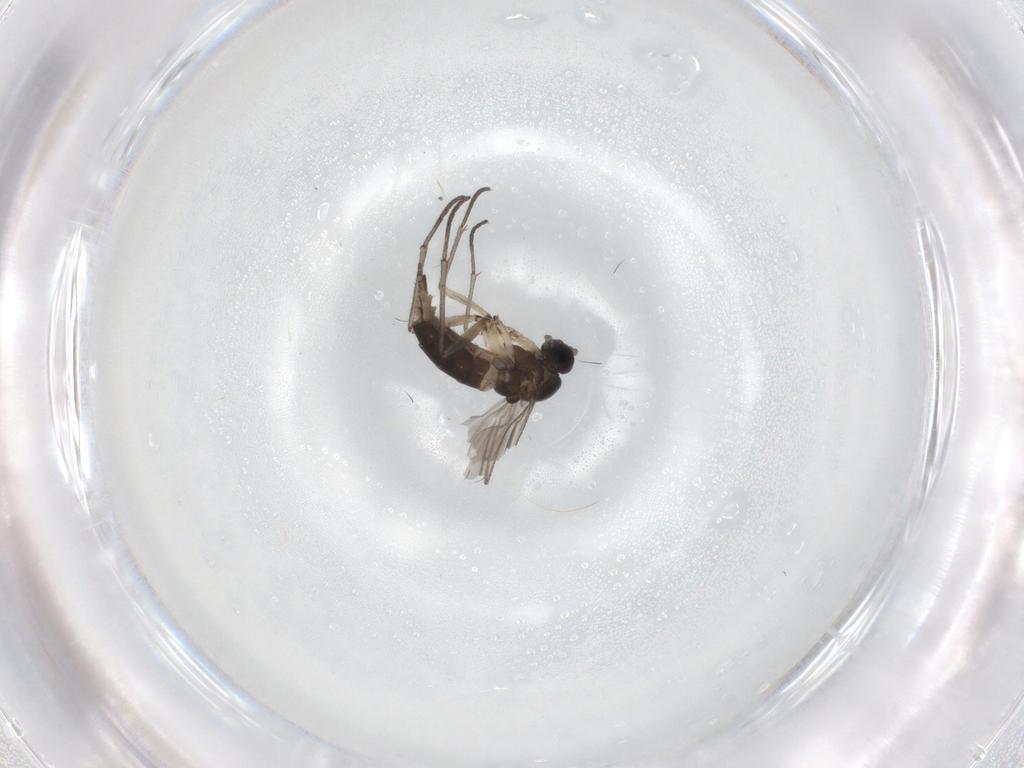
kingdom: Animalia
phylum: Arthropoda
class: Insecta
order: Diptera
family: Sciaridae
